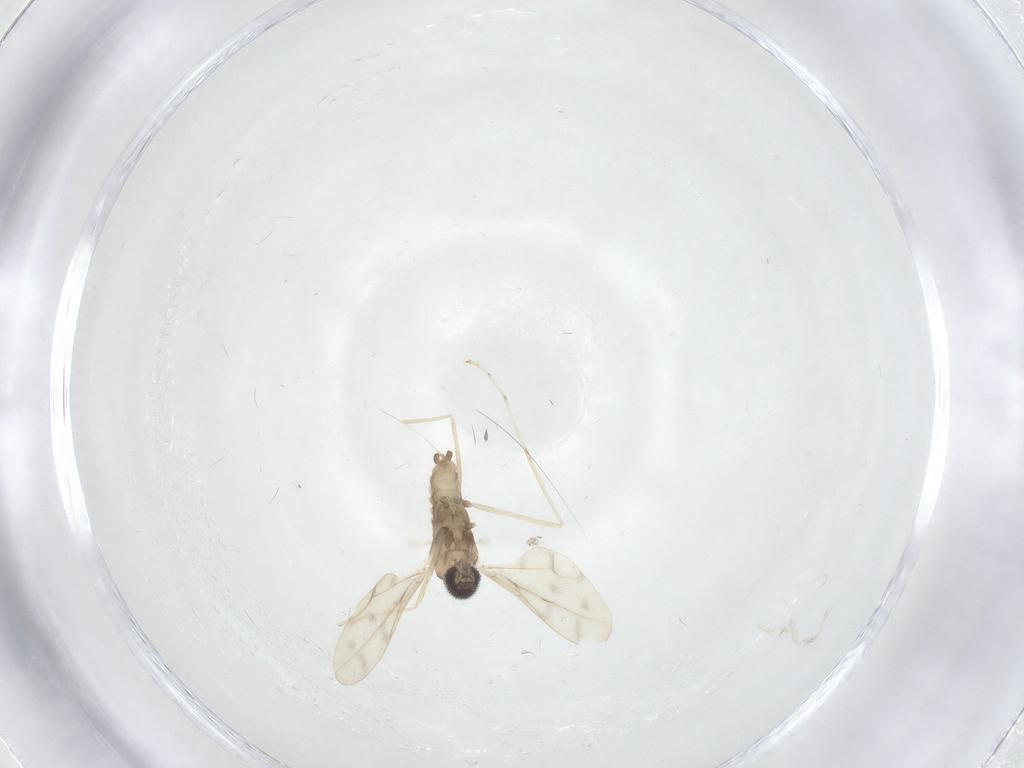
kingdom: Animalia
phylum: Arthropoda
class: Insecta
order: Diptera
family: Cecidomyiidae
